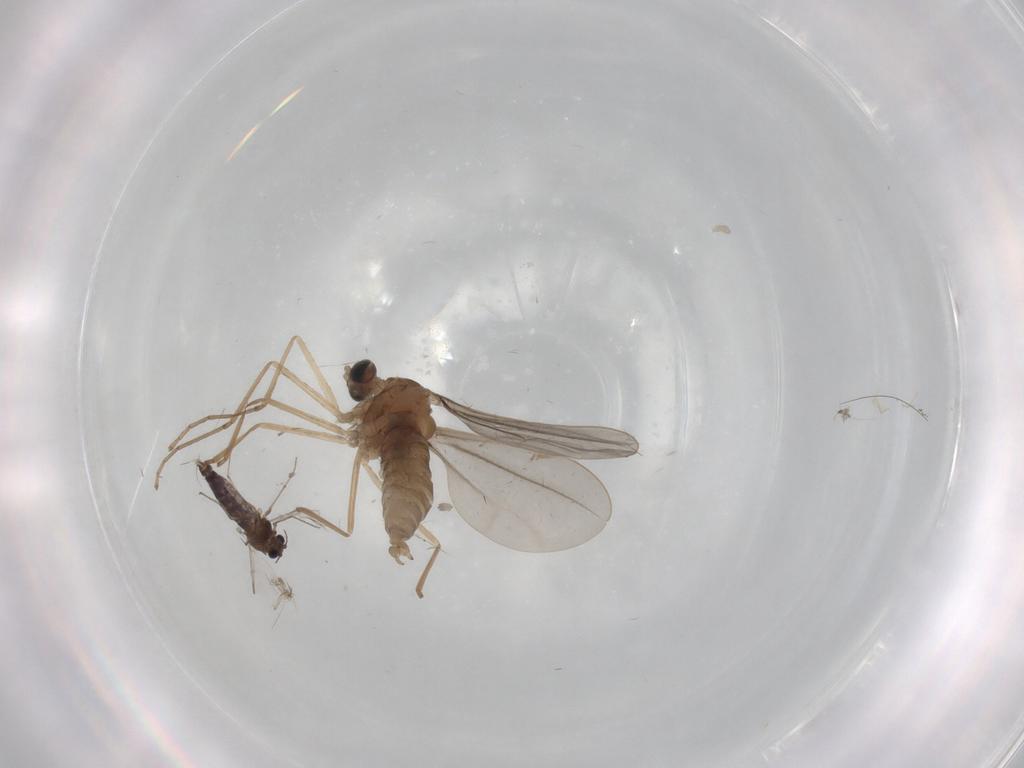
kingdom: Animalia
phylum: Arthropoda
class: Insecta
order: Diptera
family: Chironomidae
